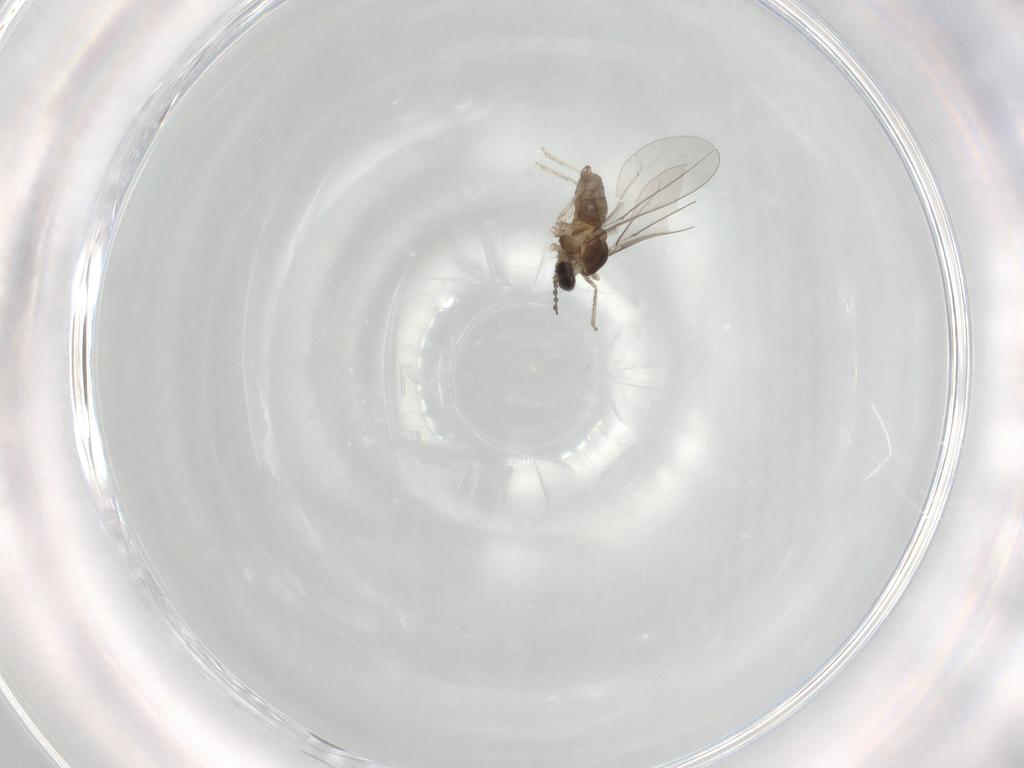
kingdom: Animalia
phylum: Arthropoda
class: Insecta
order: Diptera
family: Cecidomyiidae
